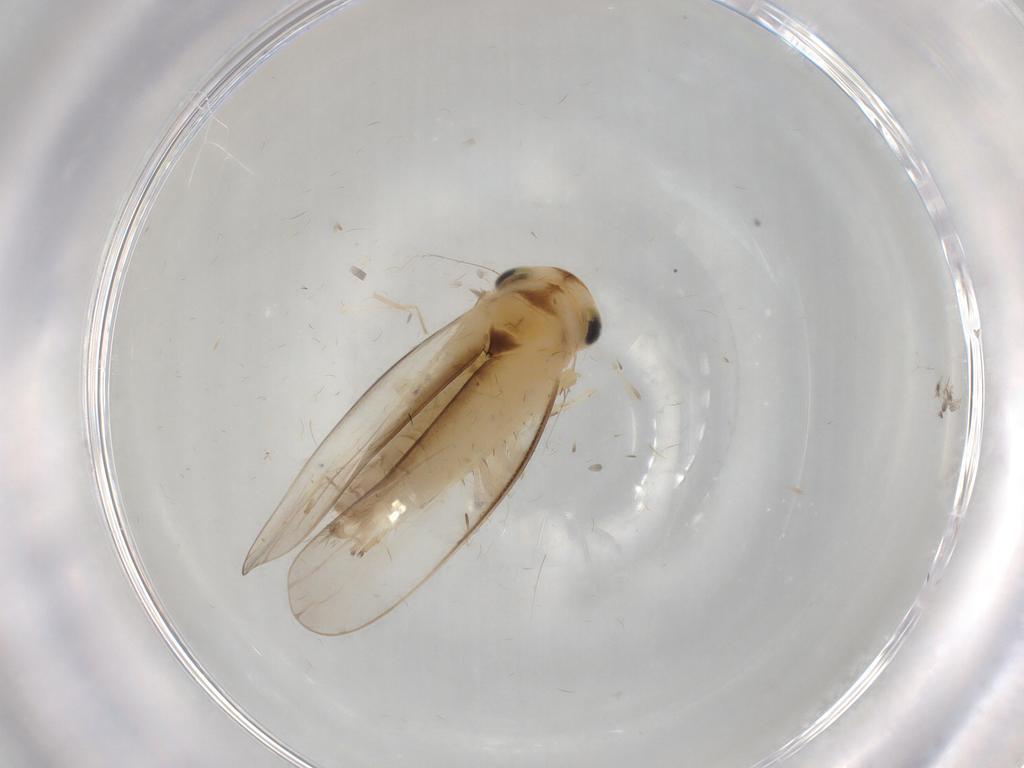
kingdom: Animalia
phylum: Arthropoda
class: Insecta
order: Hemiptera
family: Cicadellidae
